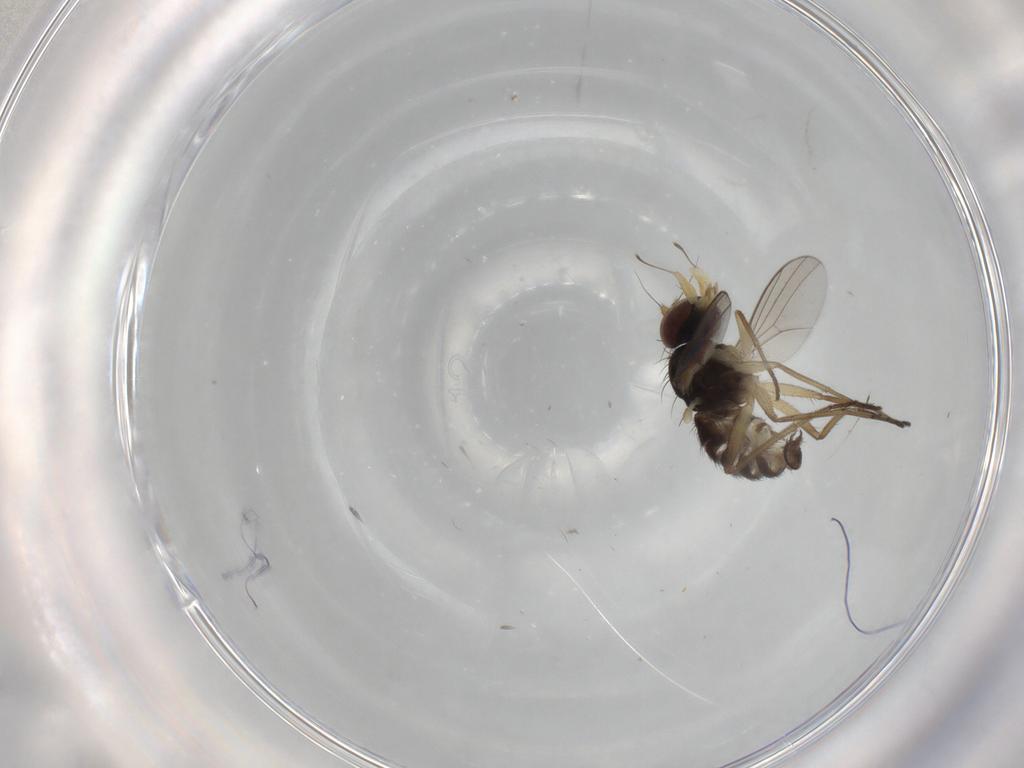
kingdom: Animalia
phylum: Arthropoda
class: Insecta
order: Diptera
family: Dolichopodidae
